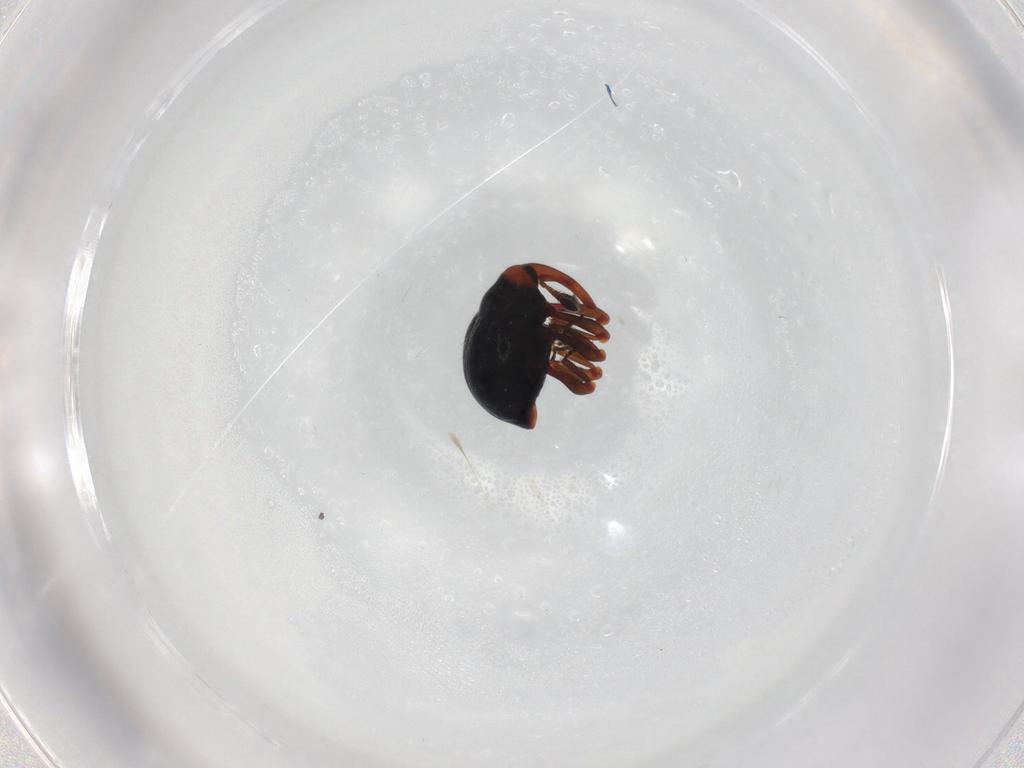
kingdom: Animalia
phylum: Arthropoda
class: Insecta
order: Coleoptera
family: Curculionidae
